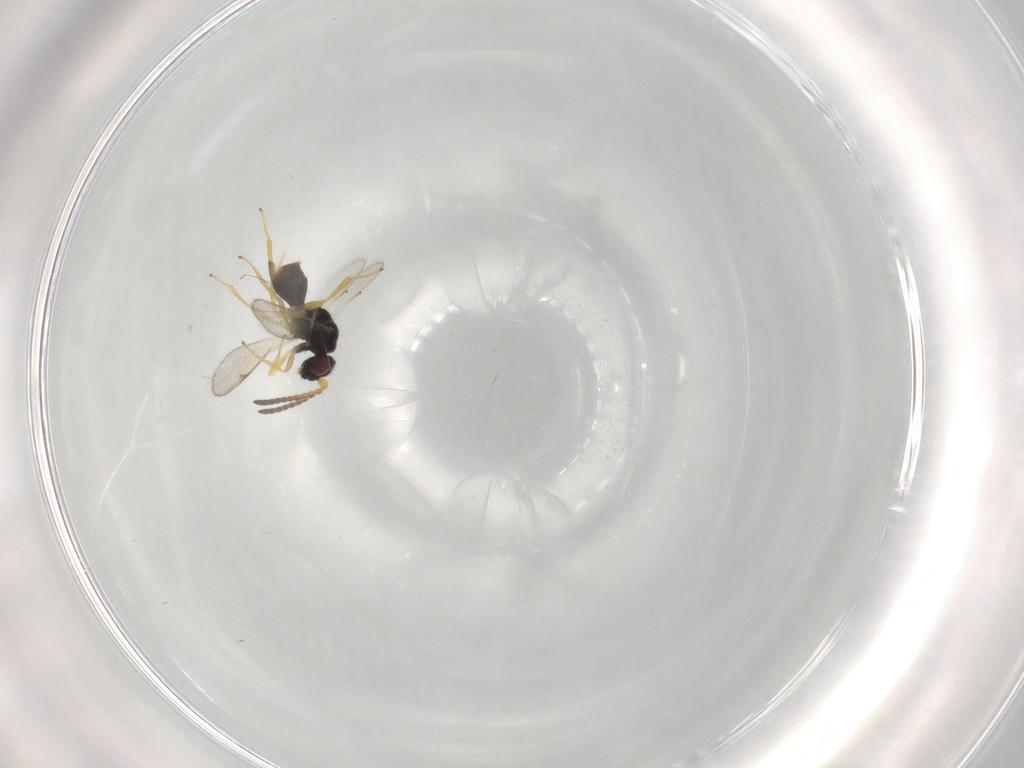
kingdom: Animalia
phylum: Arthropoda
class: Insecta
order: Hymenoptera
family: Pteromalidae
